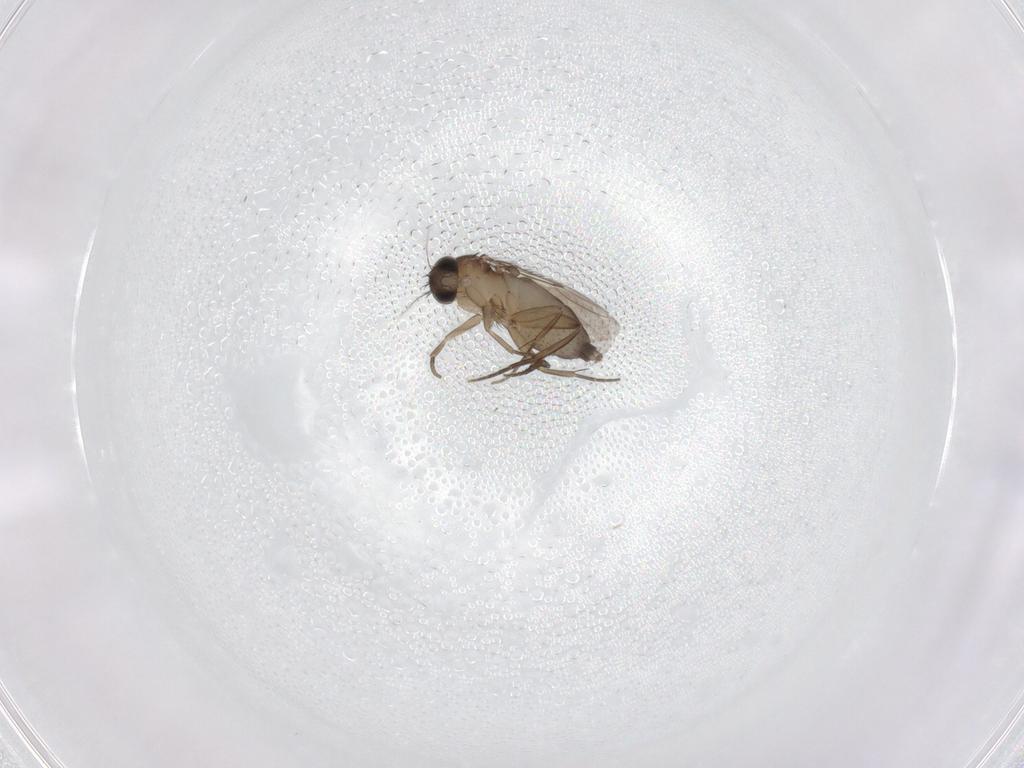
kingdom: Animalia
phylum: Arthropoda
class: Insecta
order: Diptera
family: Phoridae
